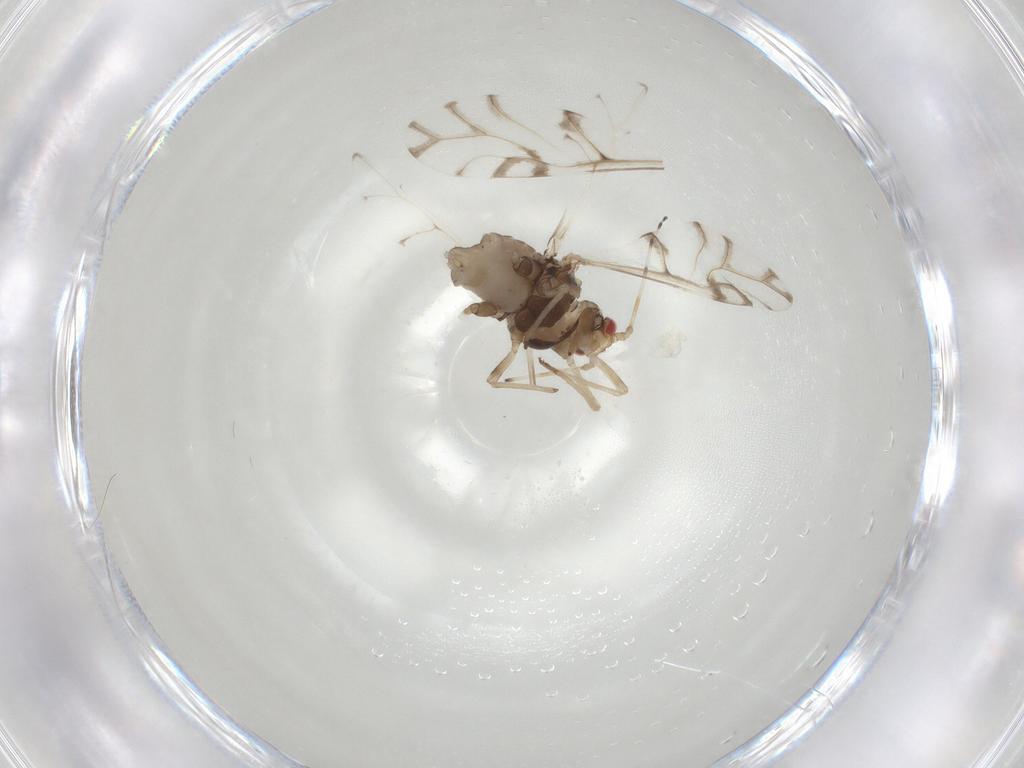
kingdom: Animalia
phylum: Arthropoda
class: Insecta
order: Hemiptera
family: Aphididae
